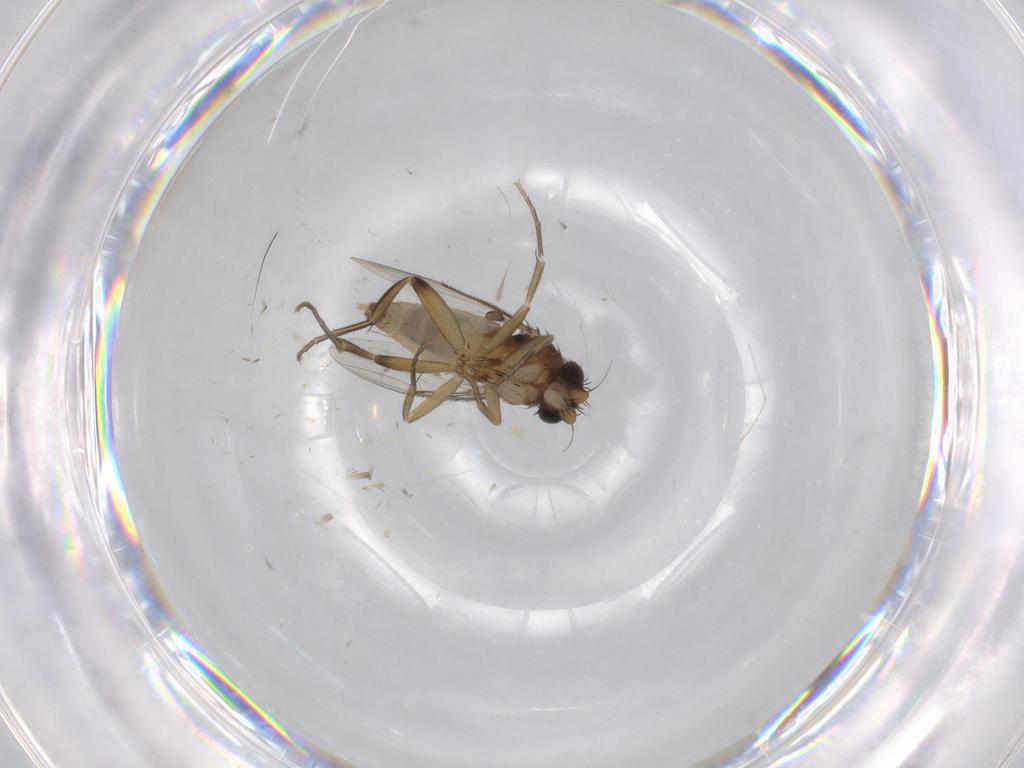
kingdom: Animalia
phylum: Arthropoda
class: Insecta
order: Diptera
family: Phoridae
